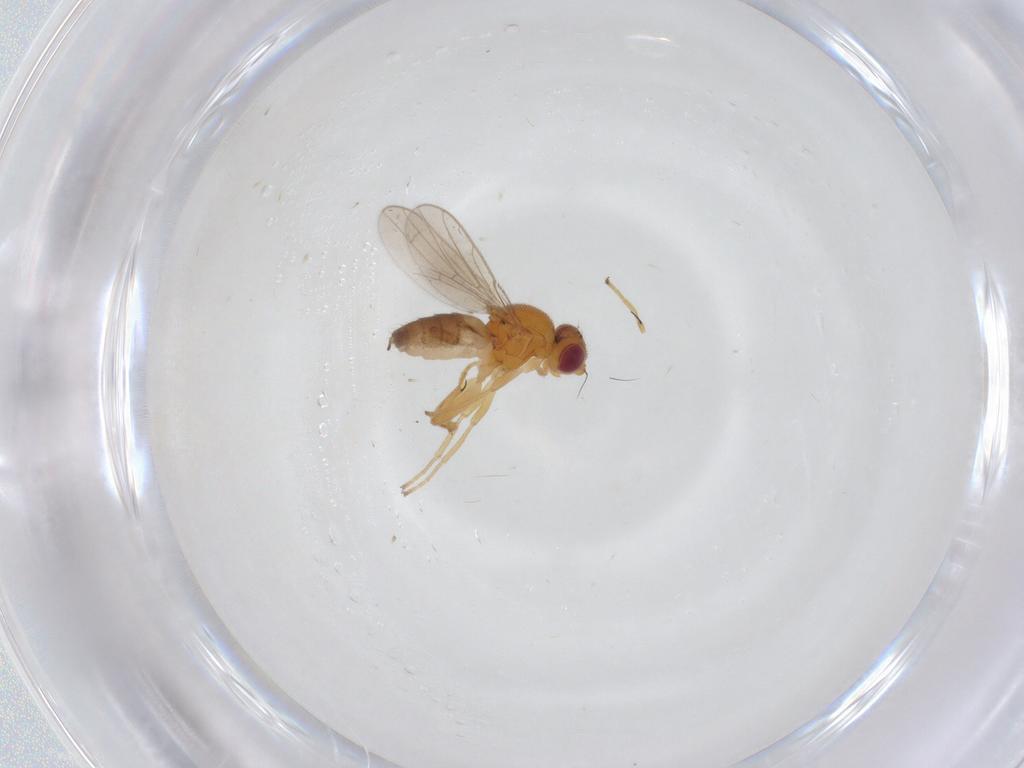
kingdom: Animalia
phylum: Arthropoda
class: Insecta
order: Diptera
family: Chloropidae
